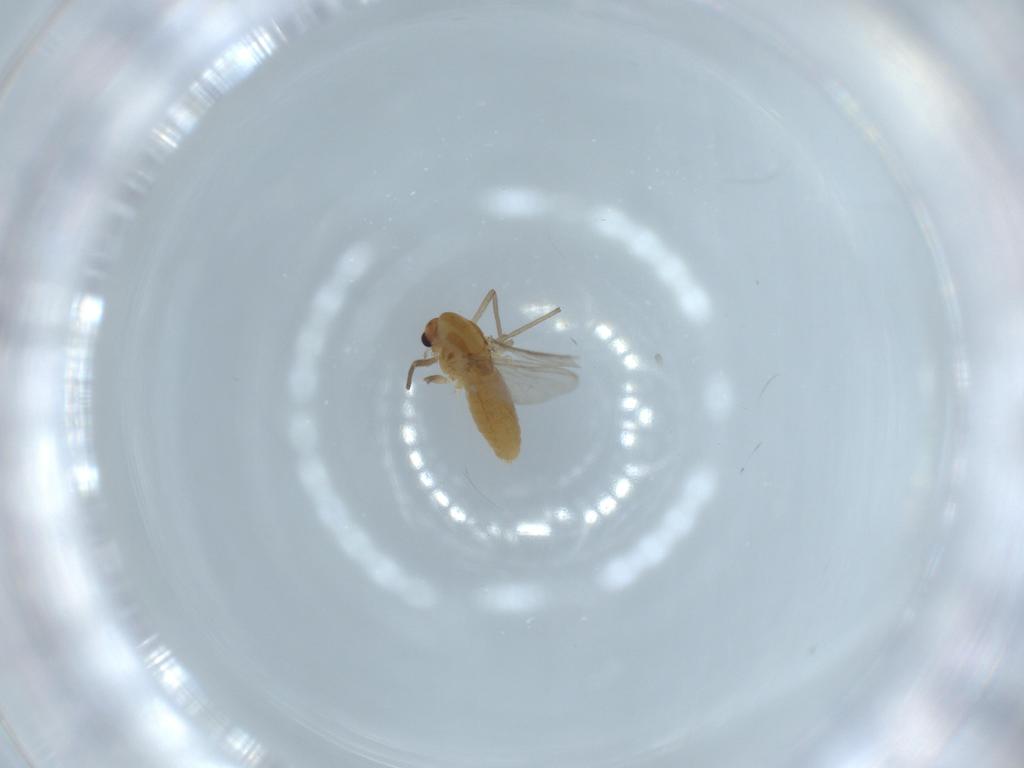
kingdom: Animalia
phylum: Arthropoda
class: Insecta
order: Diptera
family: Chironomidae
